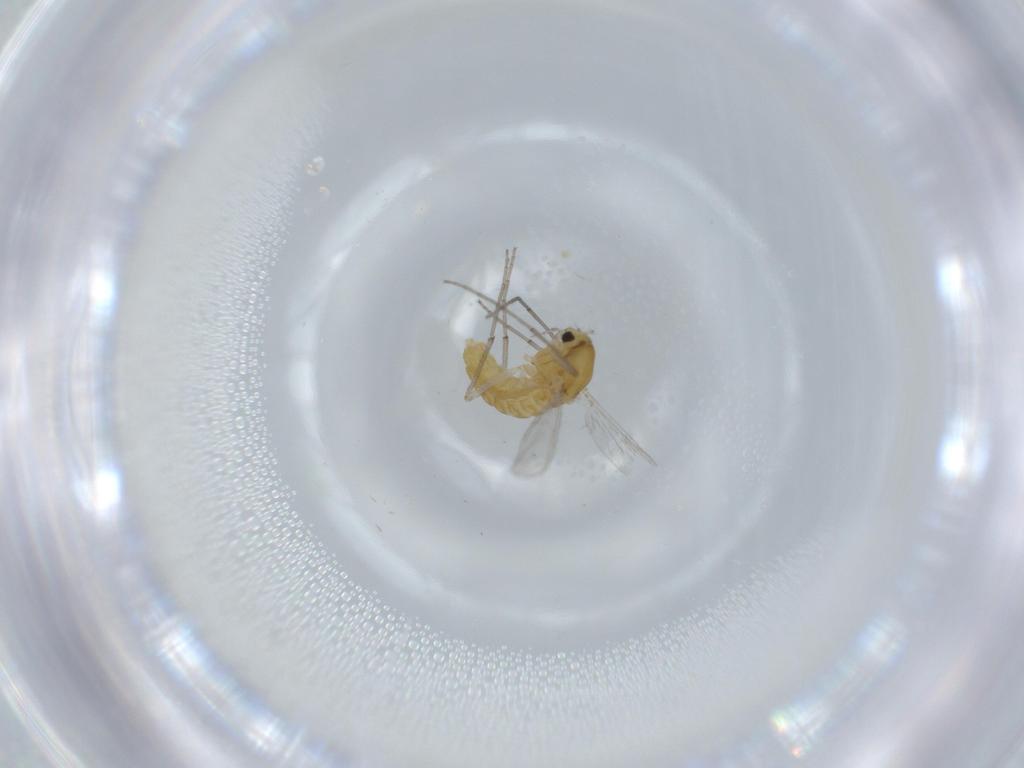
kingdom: Animalia
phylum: Arthropoda
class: Insecta
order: Diptera
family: Chironomidae
